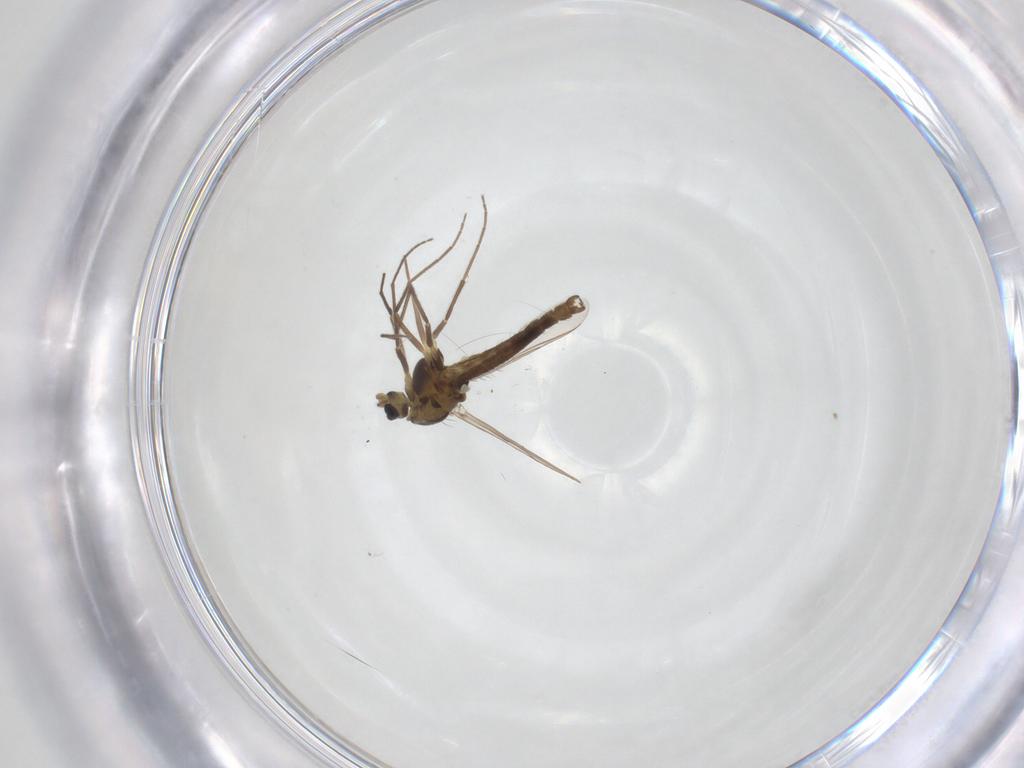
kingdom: Animalia
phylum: Arthropoda
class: Insecta
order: Diptera
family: Chironomidae
